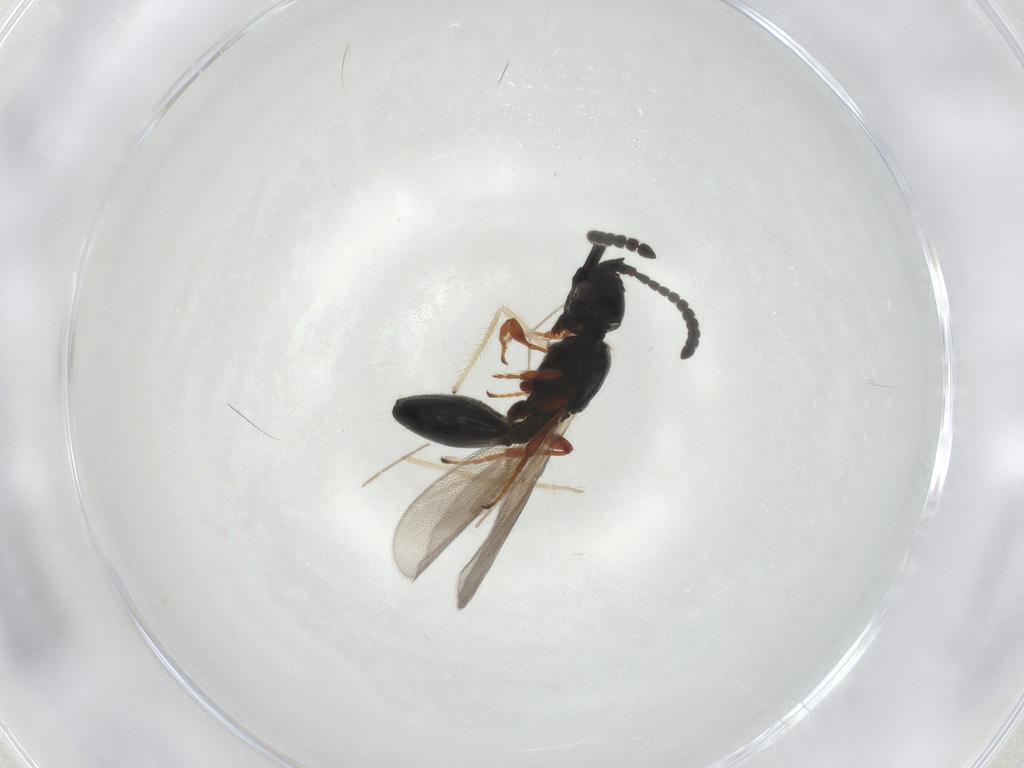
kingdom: Animalia
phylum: Arthropoda
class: Insecta
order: Hymenoptera
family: Diapriidae
